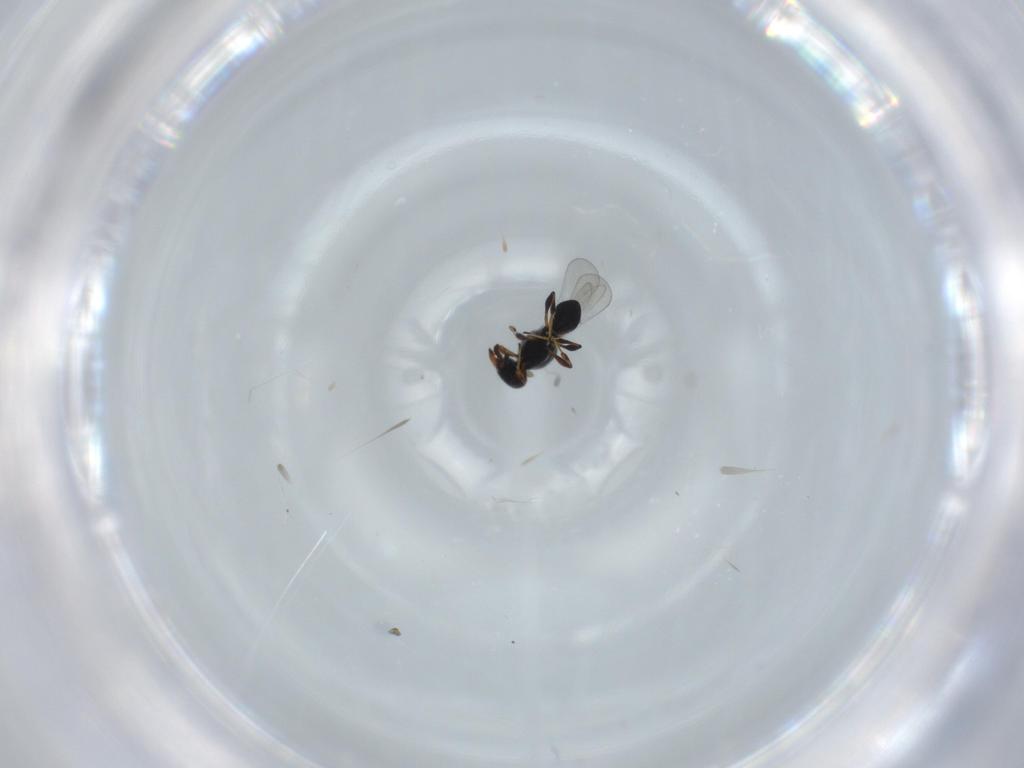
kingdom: Animalia
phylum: Arthropoda
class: Insecta
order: Hymenoptera
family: Platygastridae
